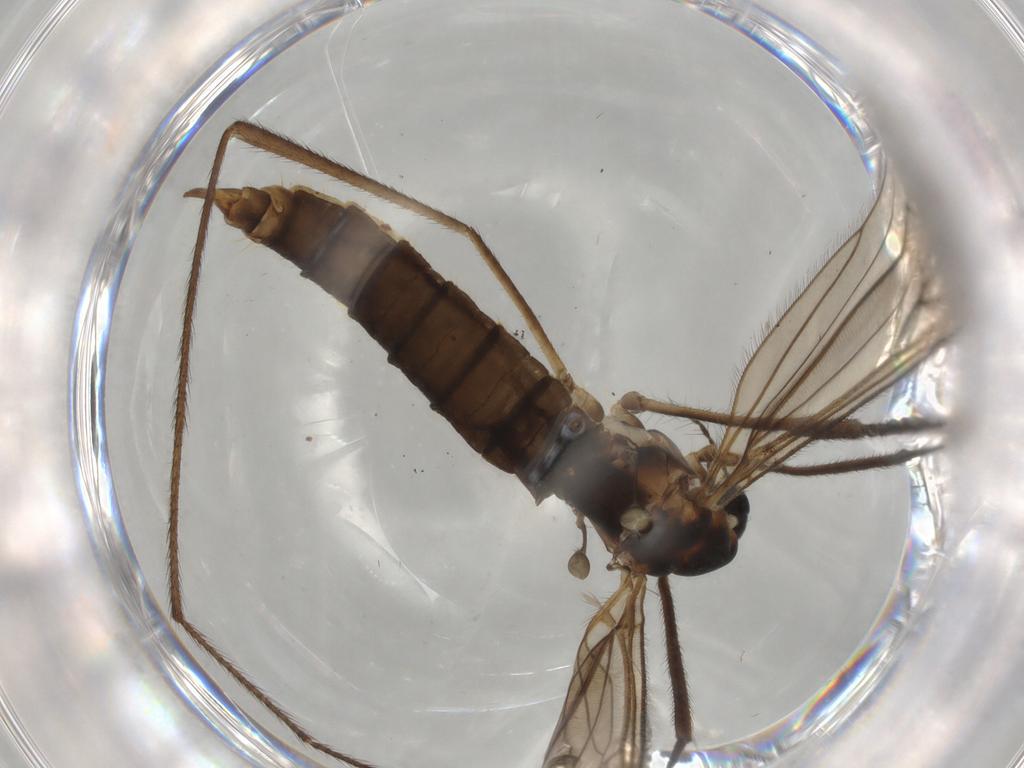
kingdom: Animalia
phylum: Arthropoda
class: Insecta
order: Diptera
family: Limoniidae
